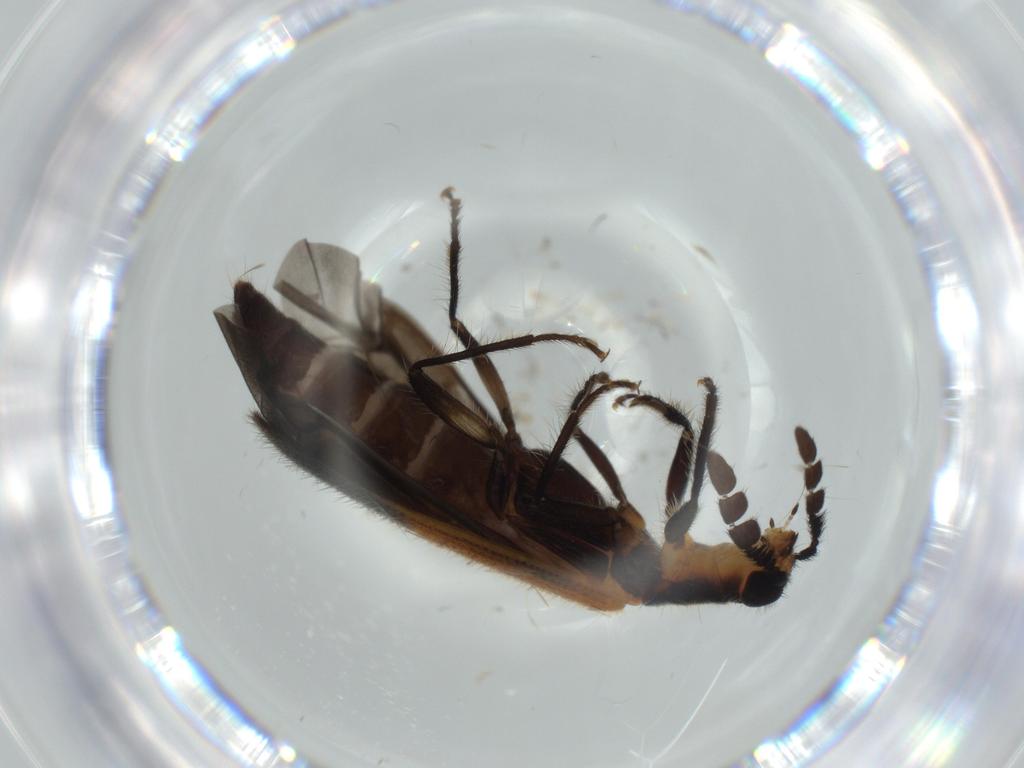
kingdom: Animalia
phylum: Arthropoda
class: Insecta
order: Coleoptera
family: Cleridae
